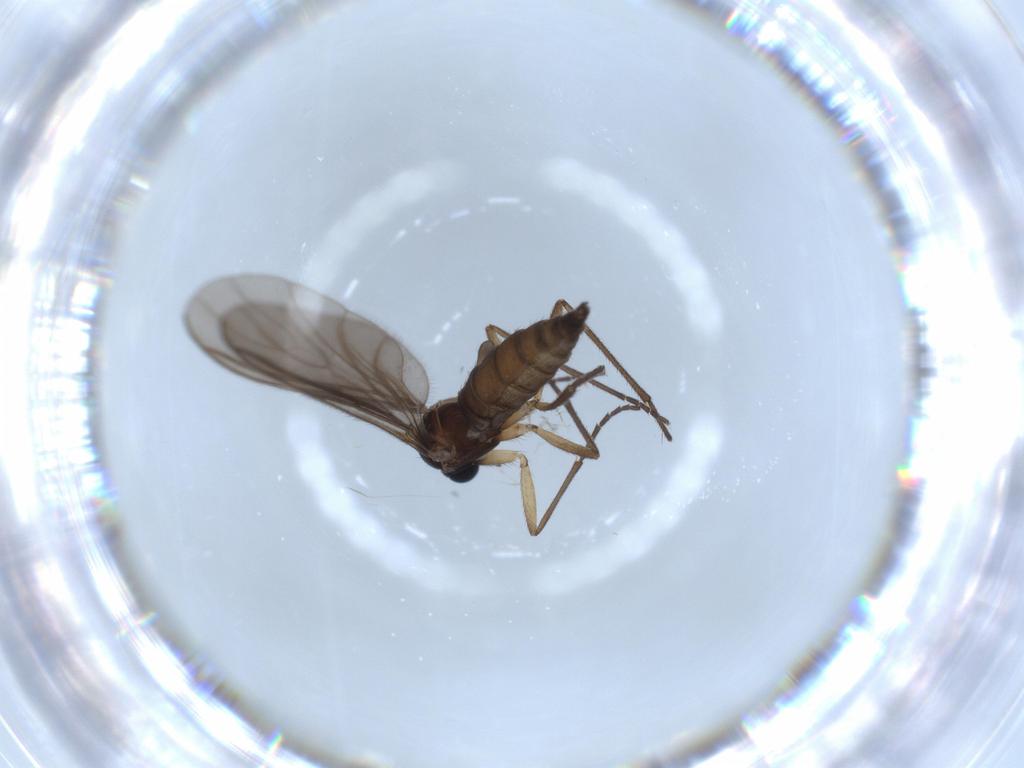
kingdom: Animalia
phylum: Arthropoda
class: Insecta
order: Diptera
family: Sciaridae
